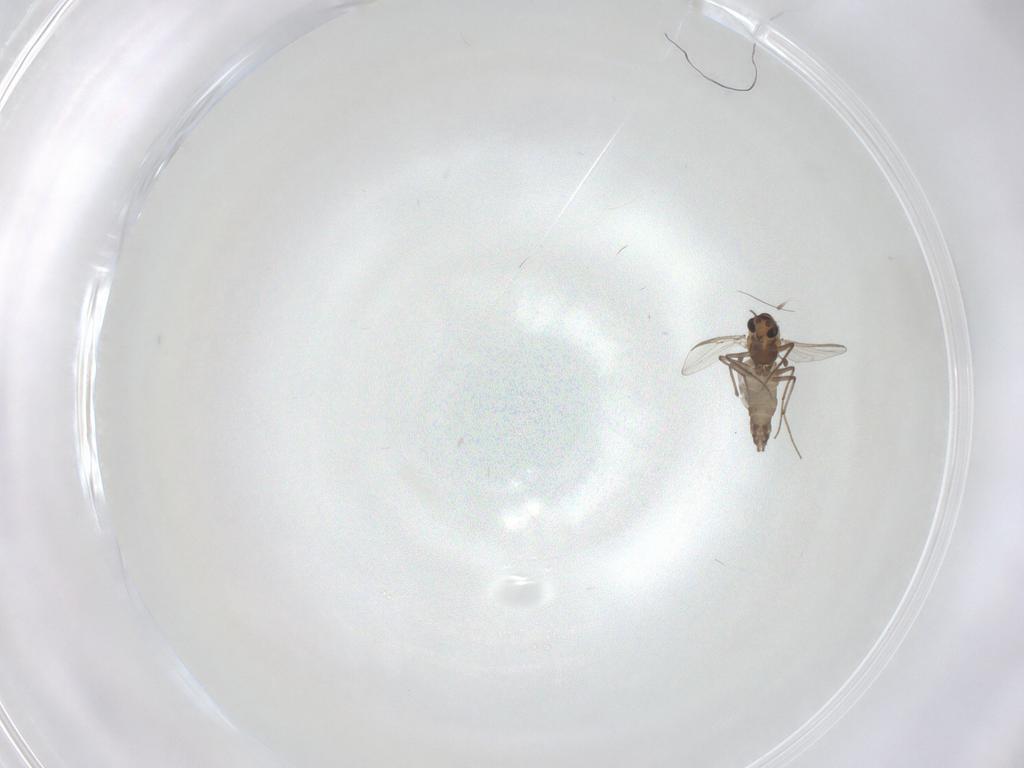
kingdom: Animalia
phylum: Arthropoda
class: Insecta
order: Diptera
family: Chironomidae
